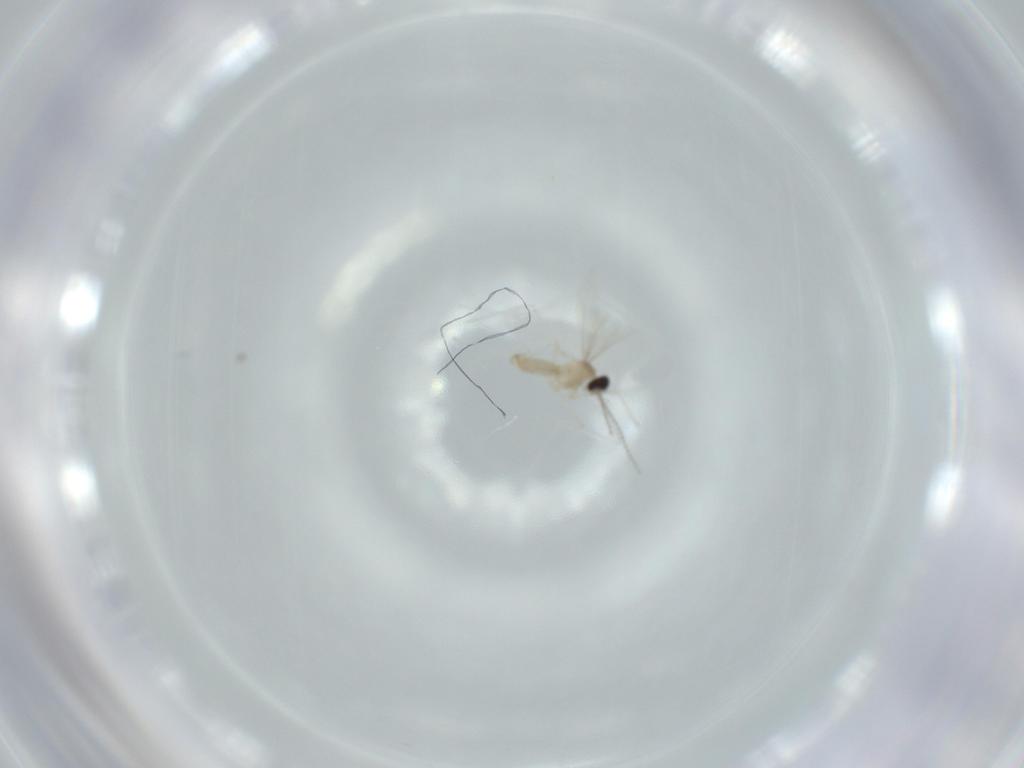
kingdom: Animalia
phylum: Arthropoda
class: Insecta
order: Diptera
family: Cecidomyiidae
